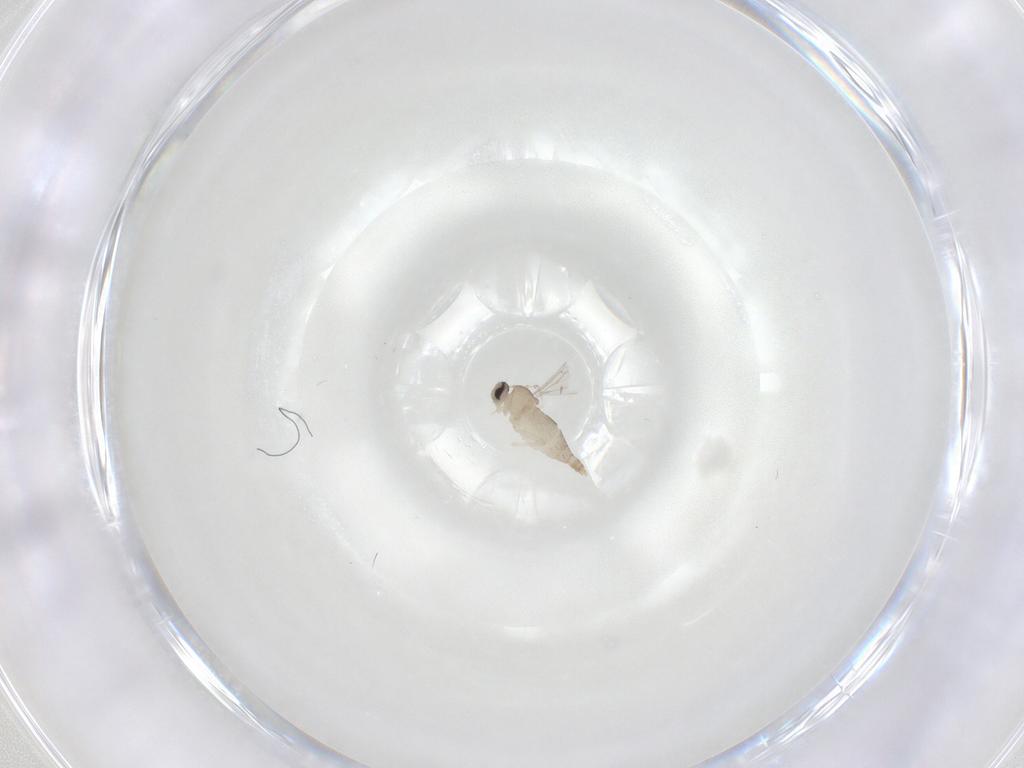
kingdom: Animalia
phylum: Arthropoda
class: Insecta
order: Diptera
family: Cecidomyiidae
